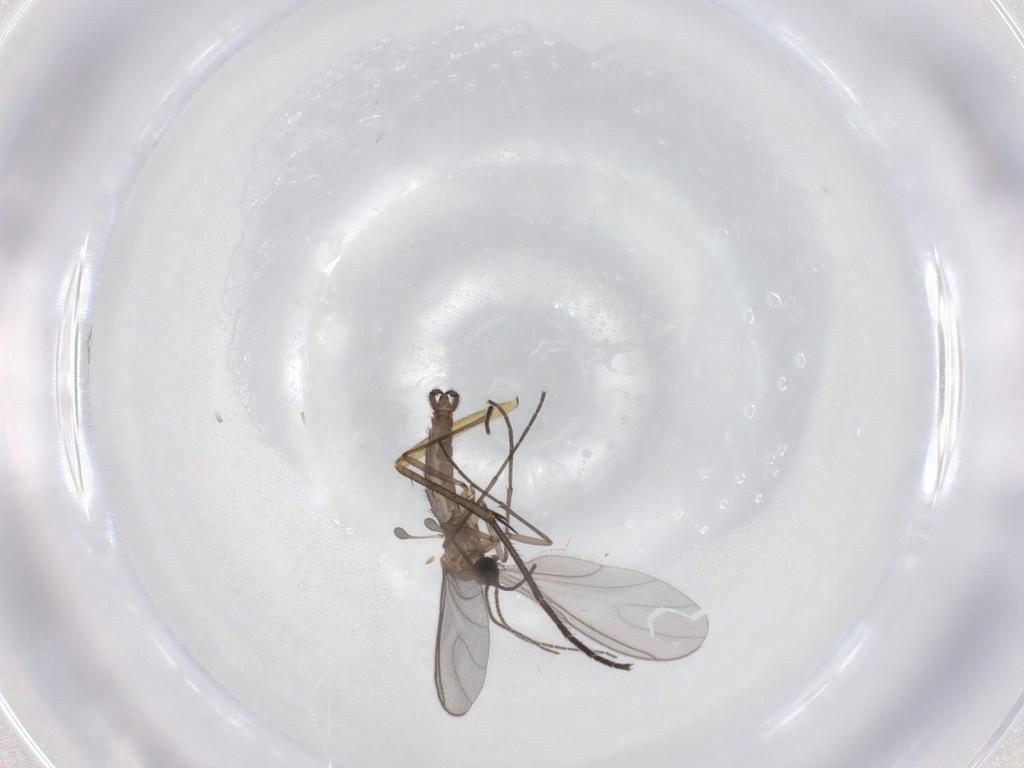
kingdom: Animalia
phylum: Arthropoda
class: Insecta
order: Diptera
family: Sciaridae
